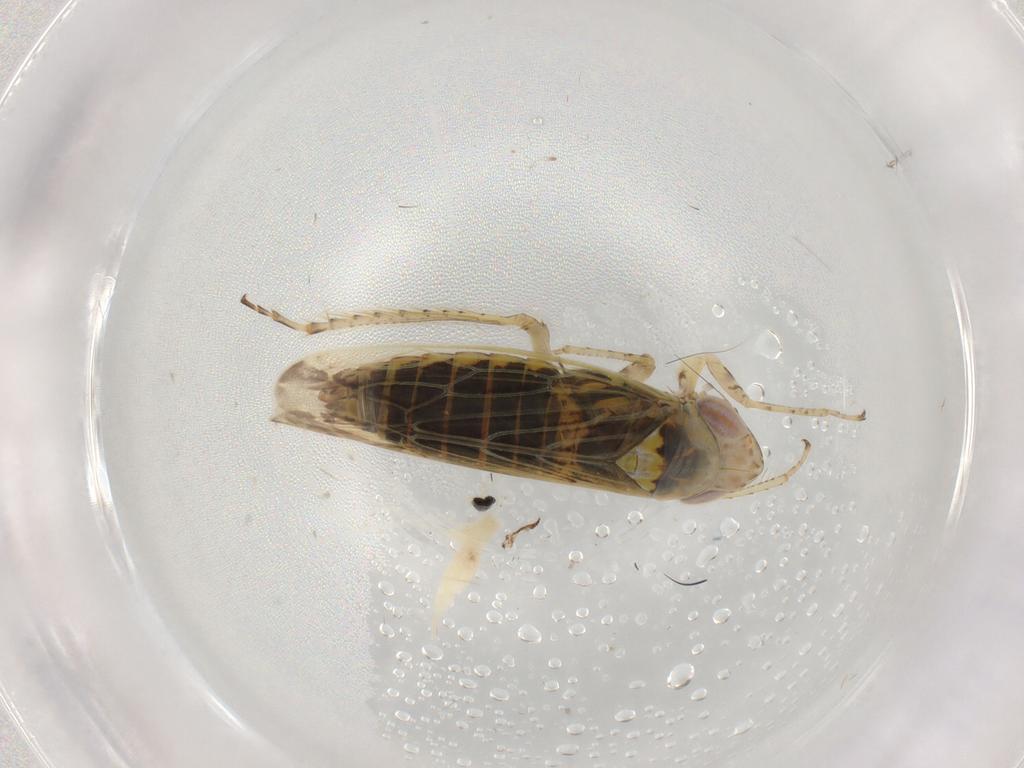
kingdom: Animalia
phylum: Arthropoda
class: Insecta
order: Hemiptera
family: Cicadellidae
